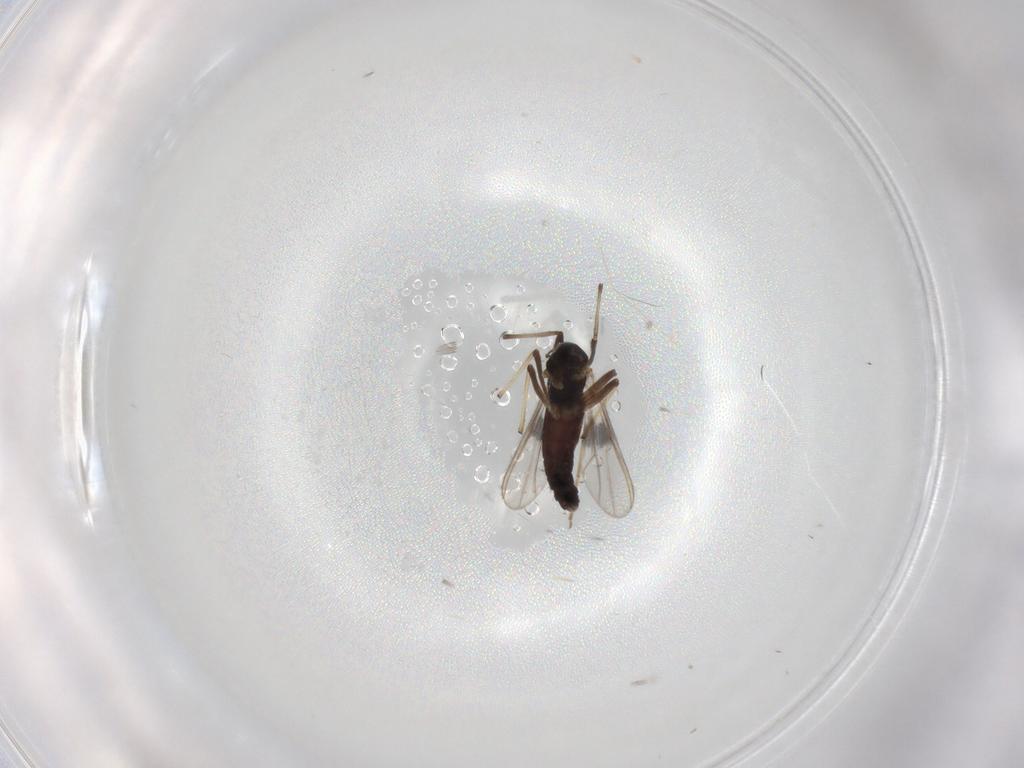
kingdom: Animalia
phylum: Arthropoda
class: Insecta
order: Diptera
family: Chironomidae
